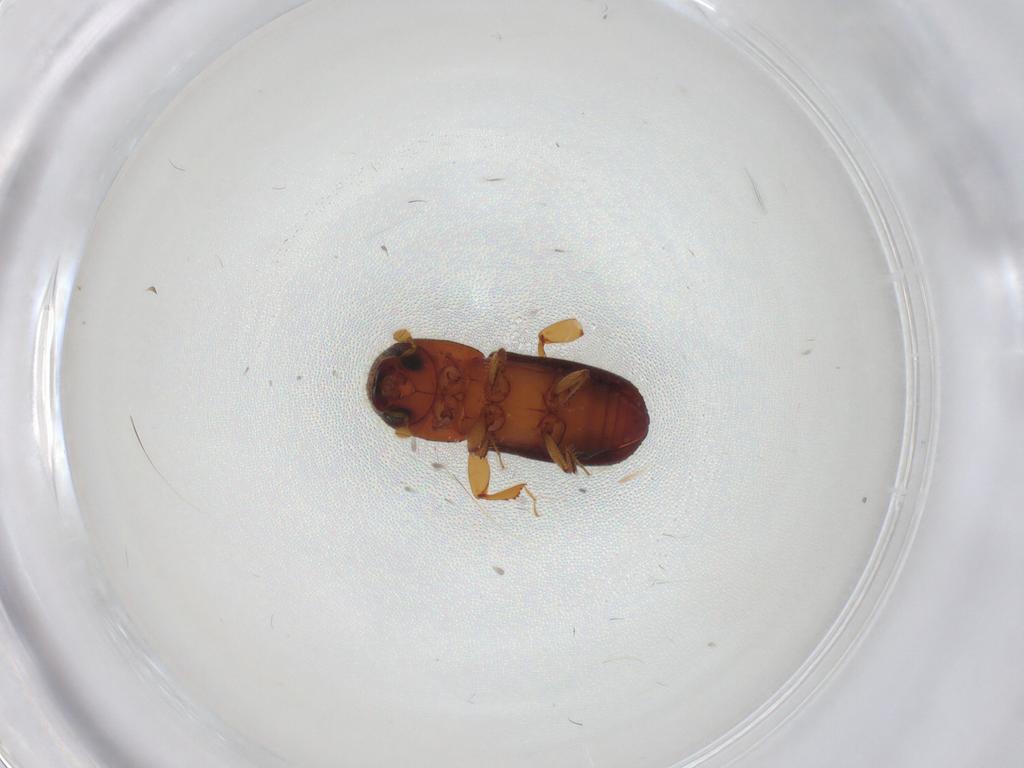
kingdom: Animalia
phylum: Arthropoda
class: Insecta
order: Coleoptera
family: Curculionidae
